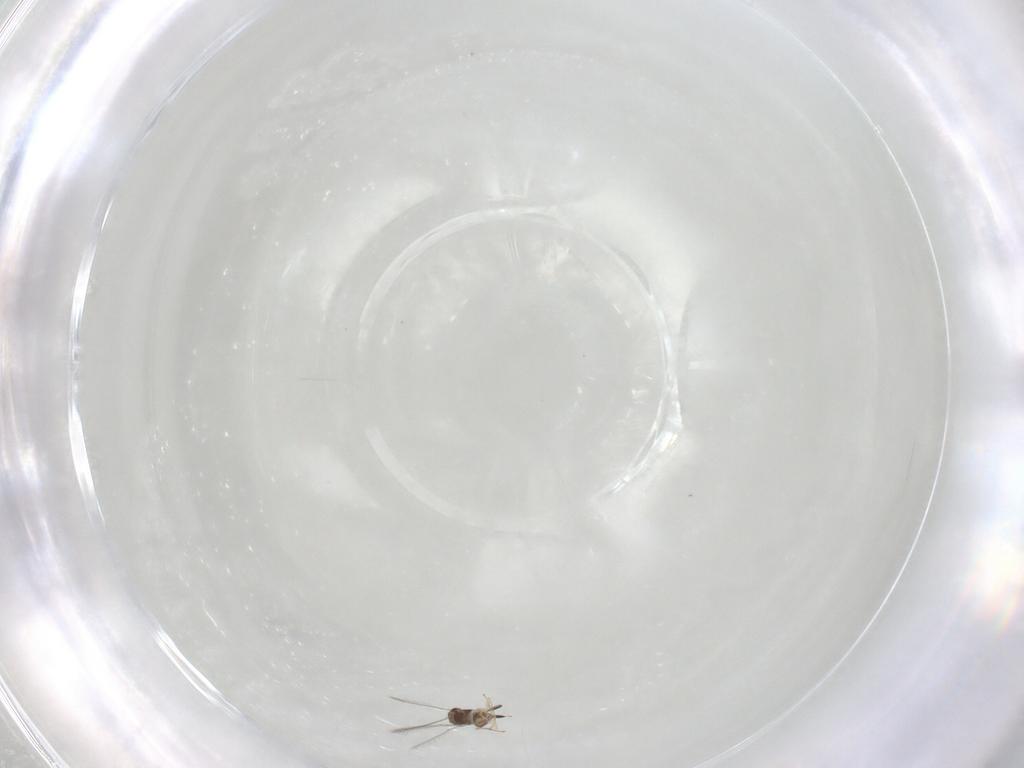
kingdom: Animalia
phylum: Arthropoda
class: Insecta
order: Hymenoptera
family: Mymaridae
